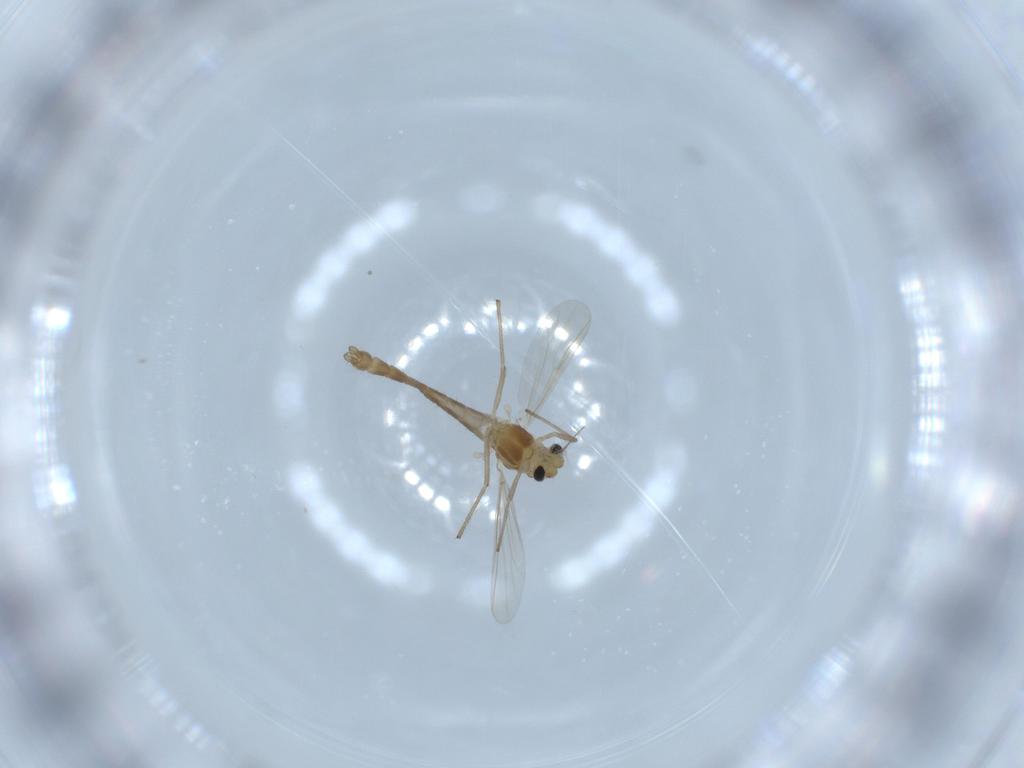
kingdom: Animalia
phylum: Arthropoda
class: Insecta
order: Diptera
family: Chironomidae
